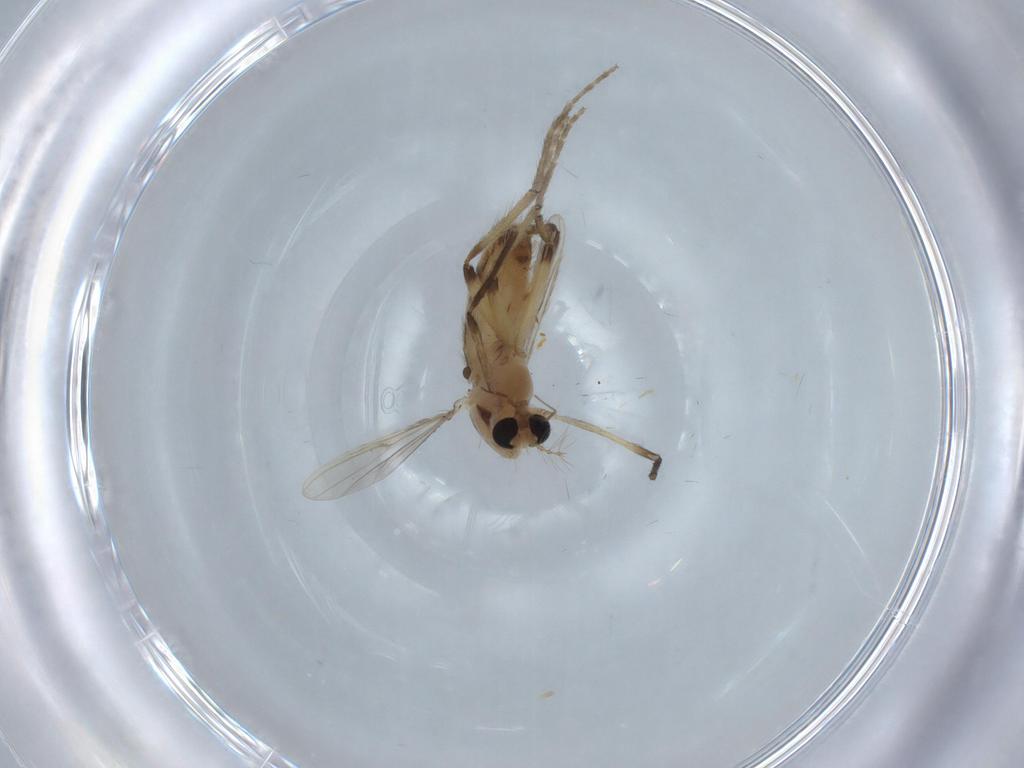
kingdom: Animalia
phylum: Arthropoda
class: Insecta
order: Diptera
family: Chironomidae
